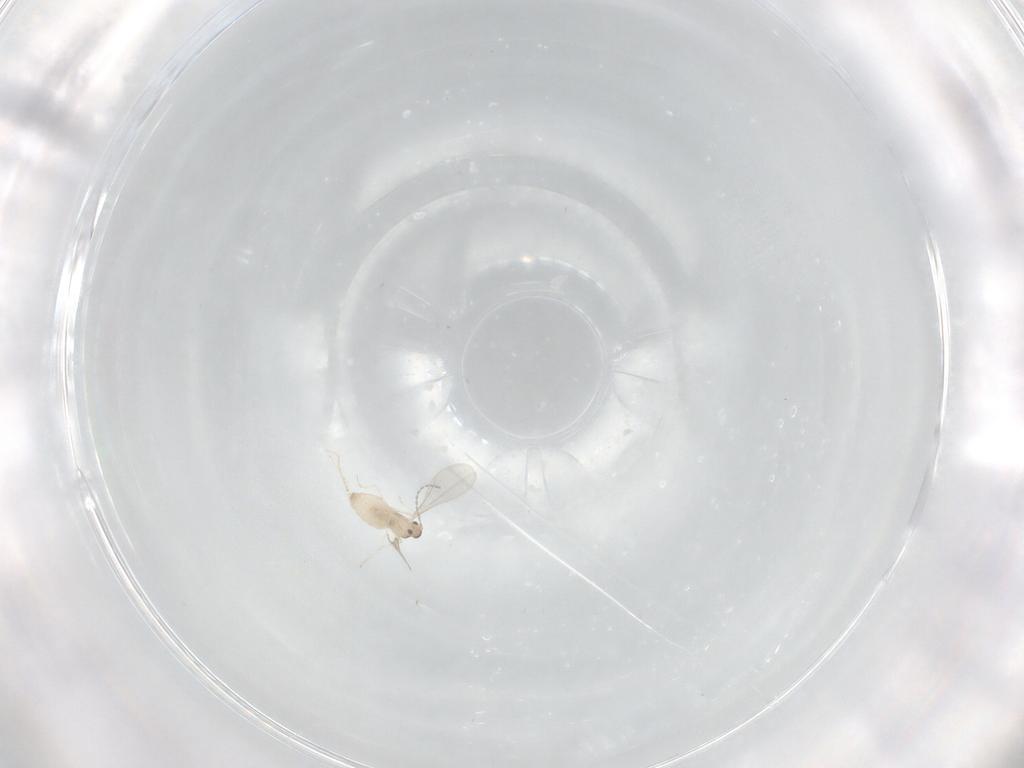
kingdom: Animalia
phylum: Arthropoda
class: Insecta
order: Diptera
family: Cecidomyiidae
